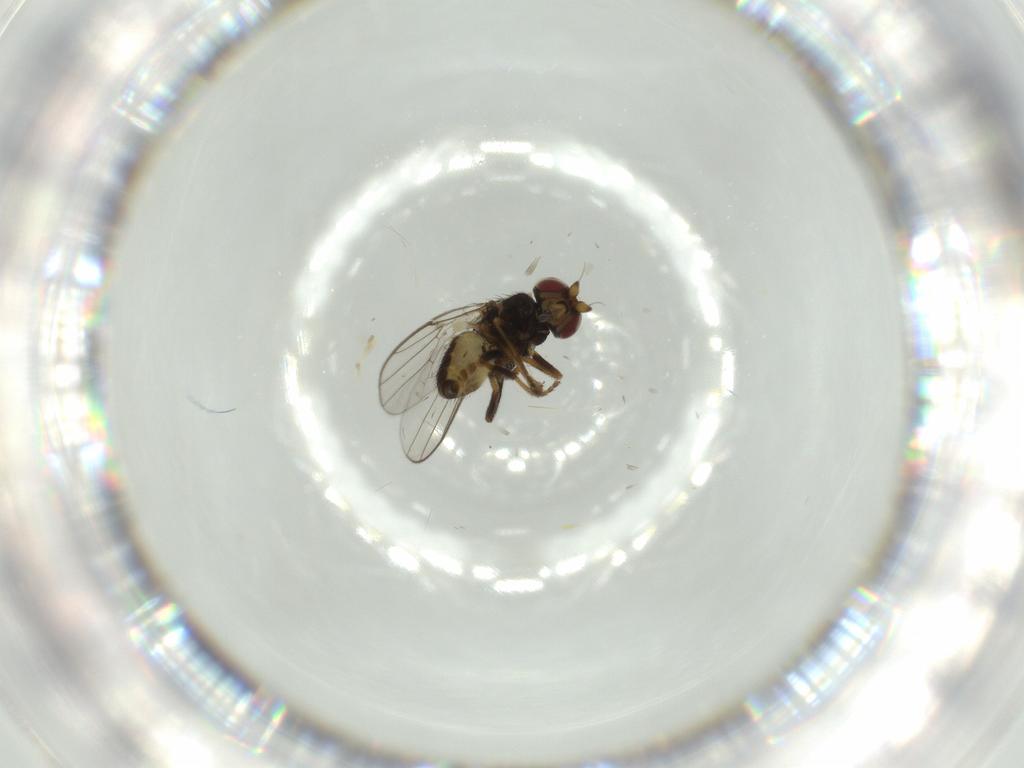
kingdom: Animalia
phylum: Arthropoda
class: Insecta
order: Diptera
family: Chloropidae
